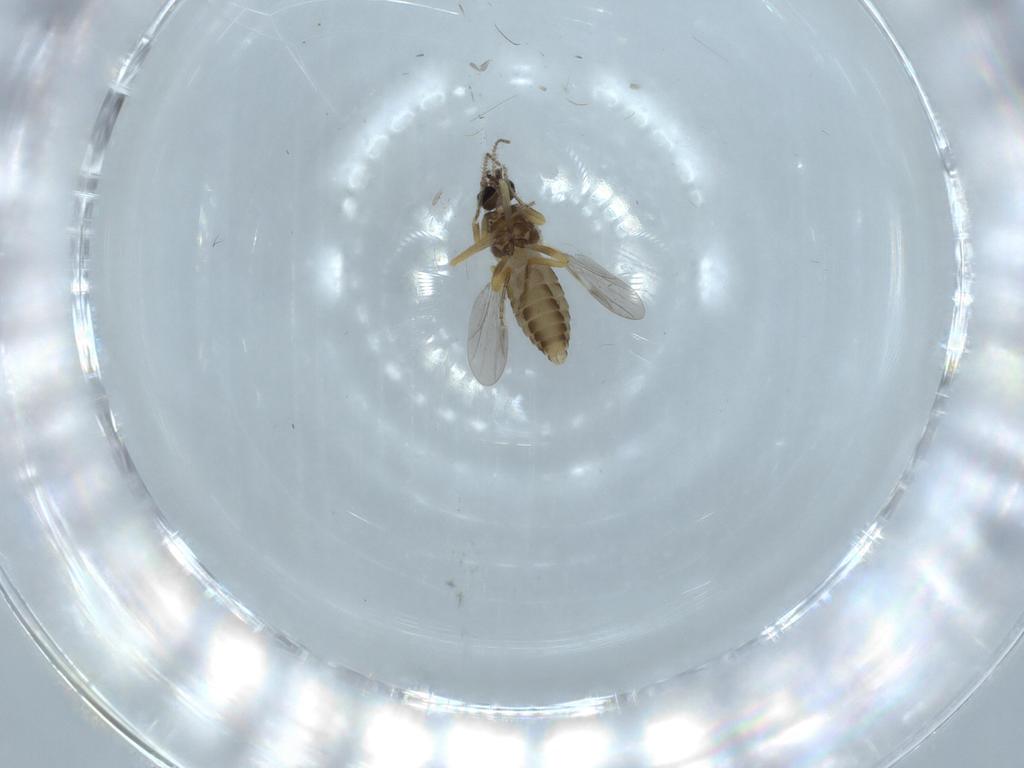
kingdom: Animalia
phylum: Arthropoda
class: Insecta
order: Diptera
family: Ceratopogonidae
